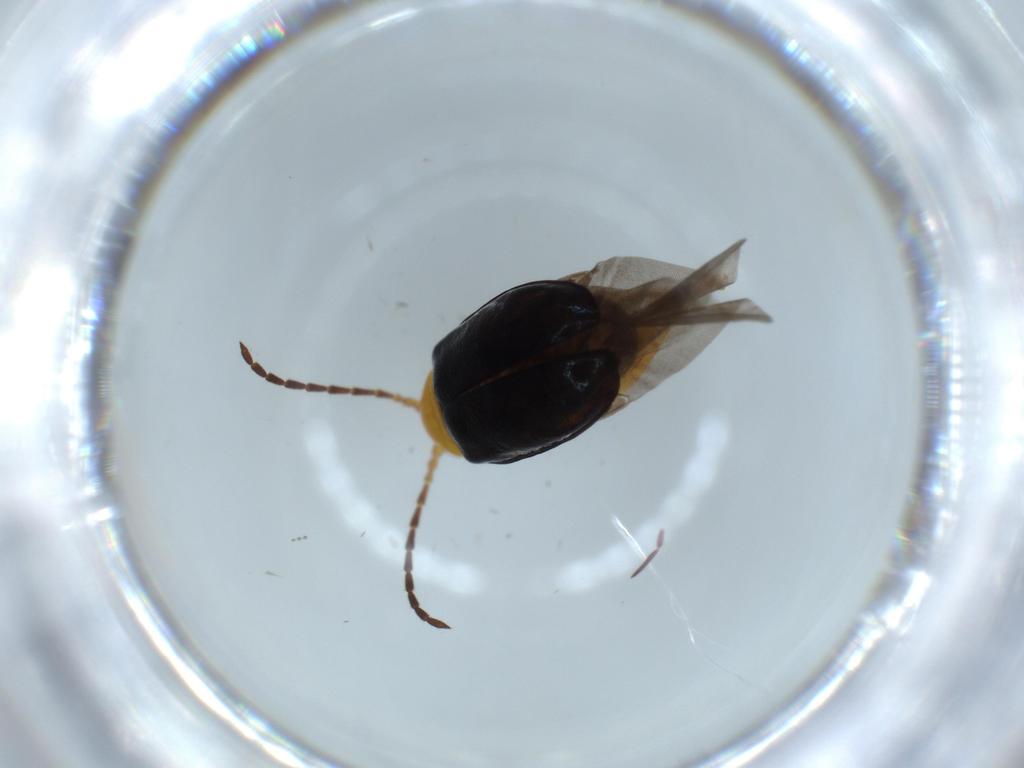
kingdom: Animalia
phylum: Arthropoda
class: Insecta
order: Coleoptera
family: Chrysomelidae
